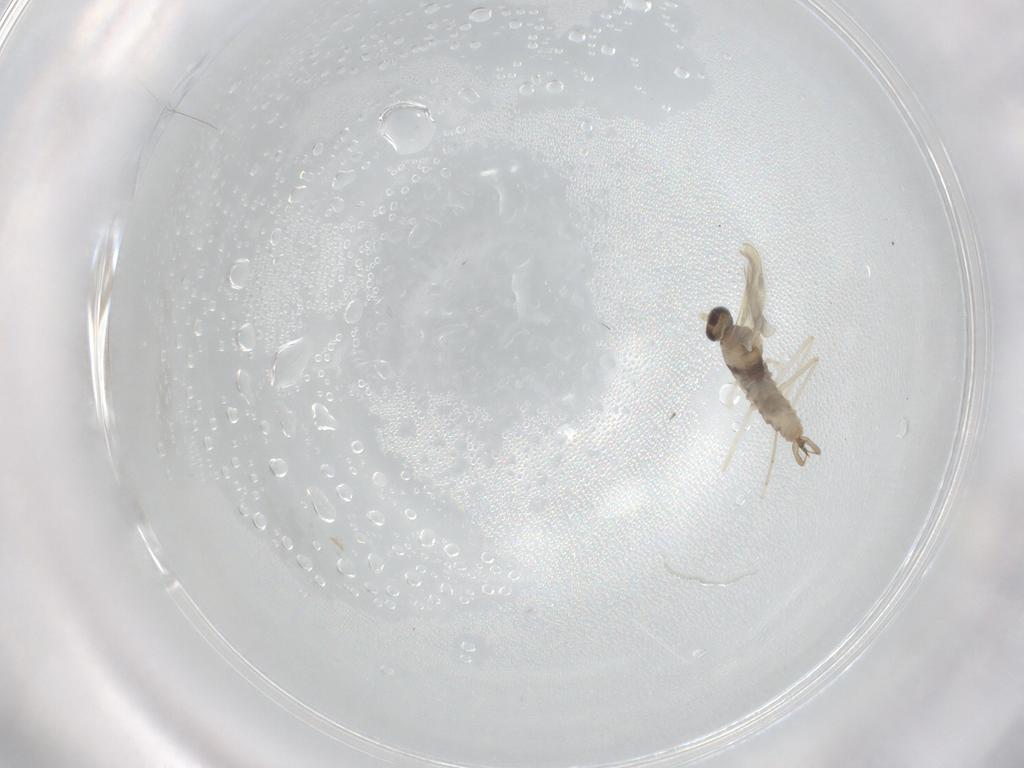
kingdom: Animalia
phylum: Arthropoda
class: Insecta
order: Diptera
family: Cecidomyiidae
